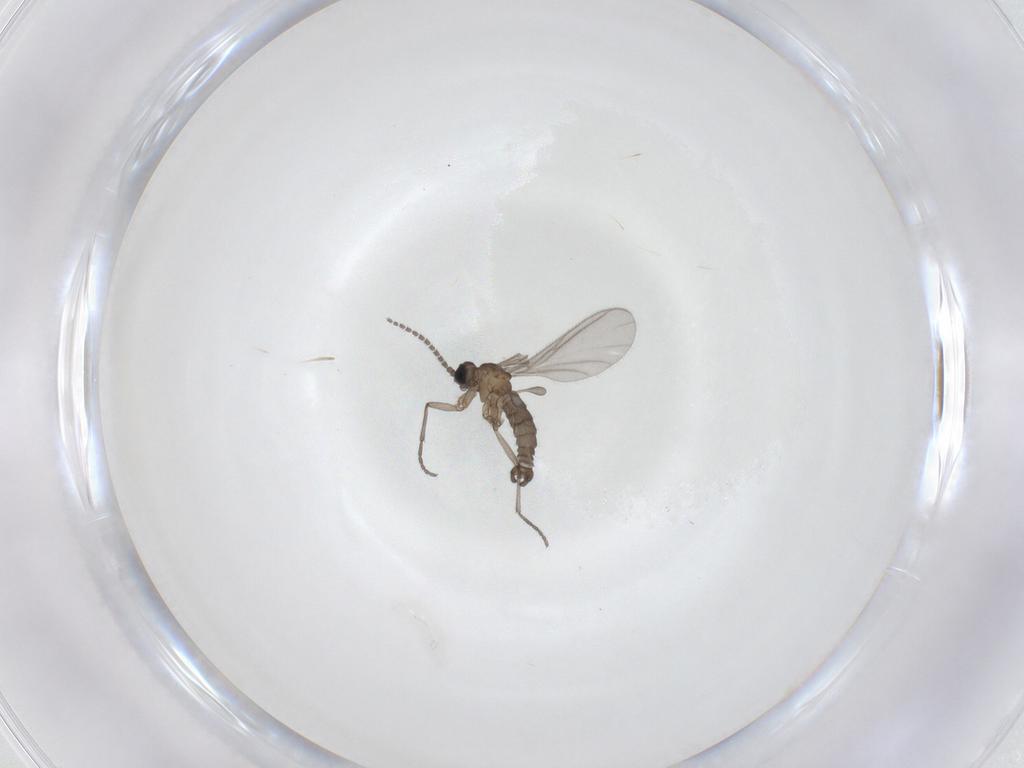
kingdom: Animalia
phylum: Arthropoda
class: Insecta
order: Diptera
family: Sciaridae
